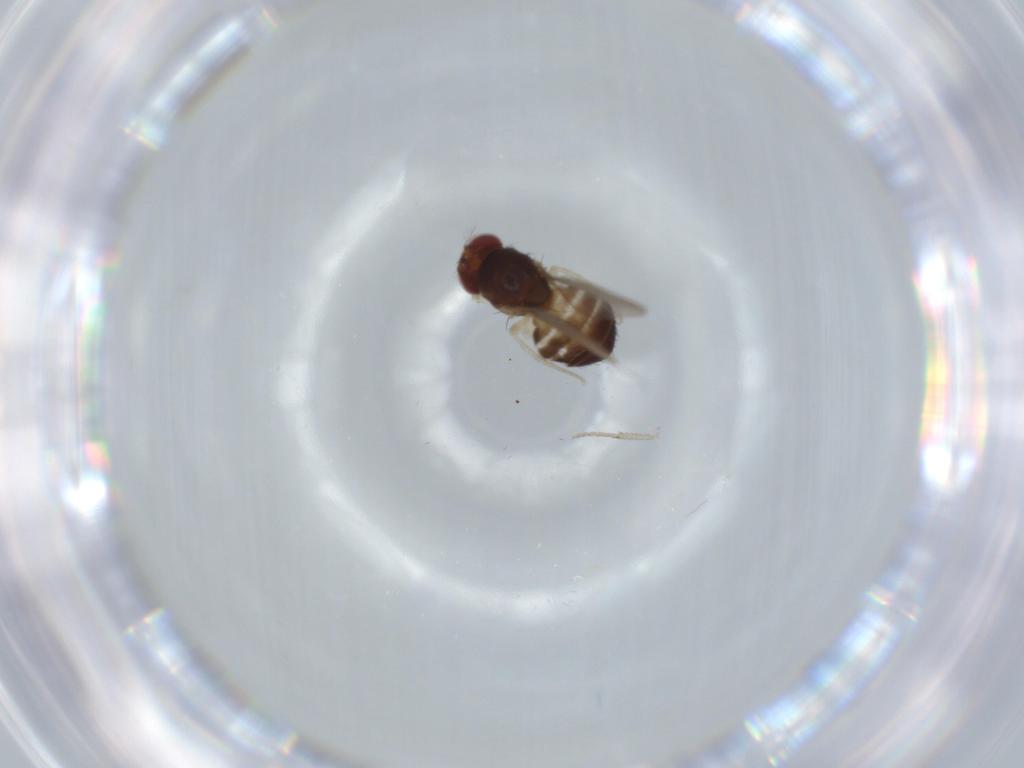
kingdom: Animalia
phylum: Arthropoda
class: Insecta
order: Diptera
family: Drosophilidae
